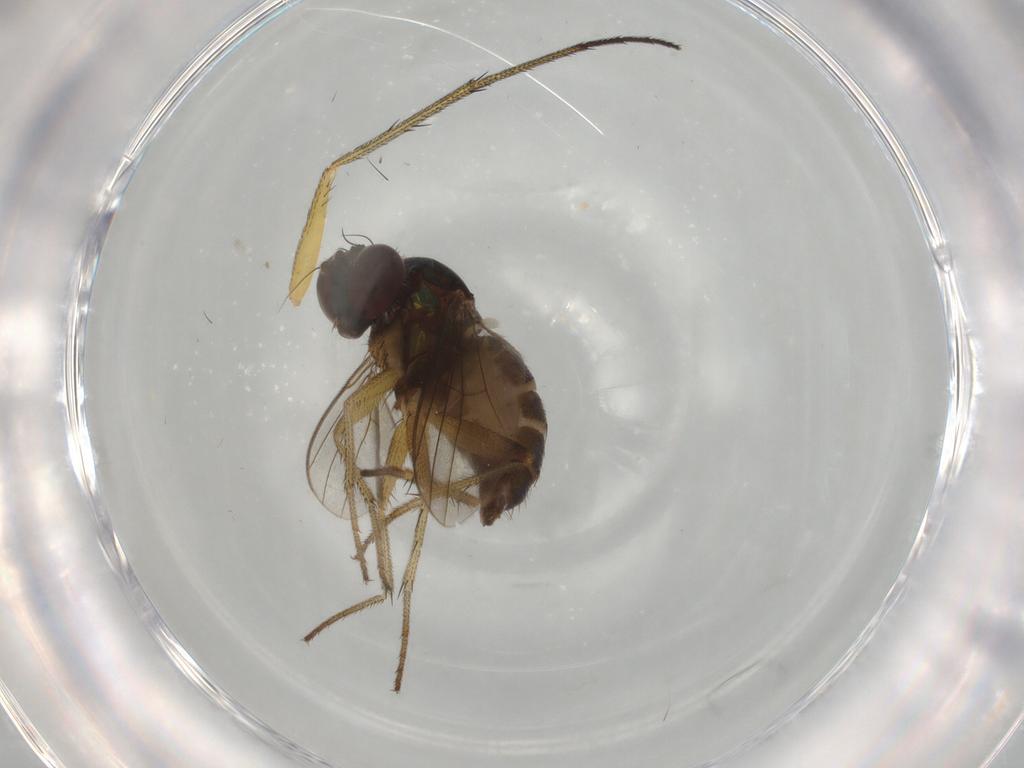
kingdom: Animalia
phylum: Arthropoda
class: Insecta
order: Diptera
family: Dolichopodidae
